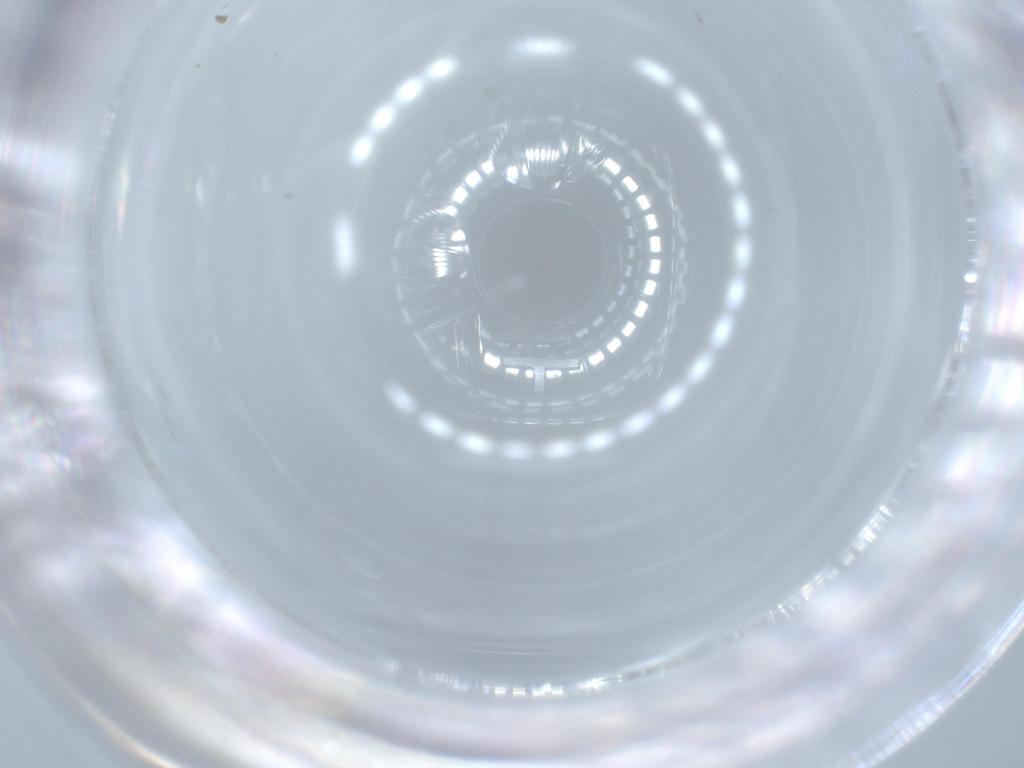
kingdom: Animalia
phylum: Arthropoda
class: Insecta
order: Diptera
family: Cecidomyiidae
